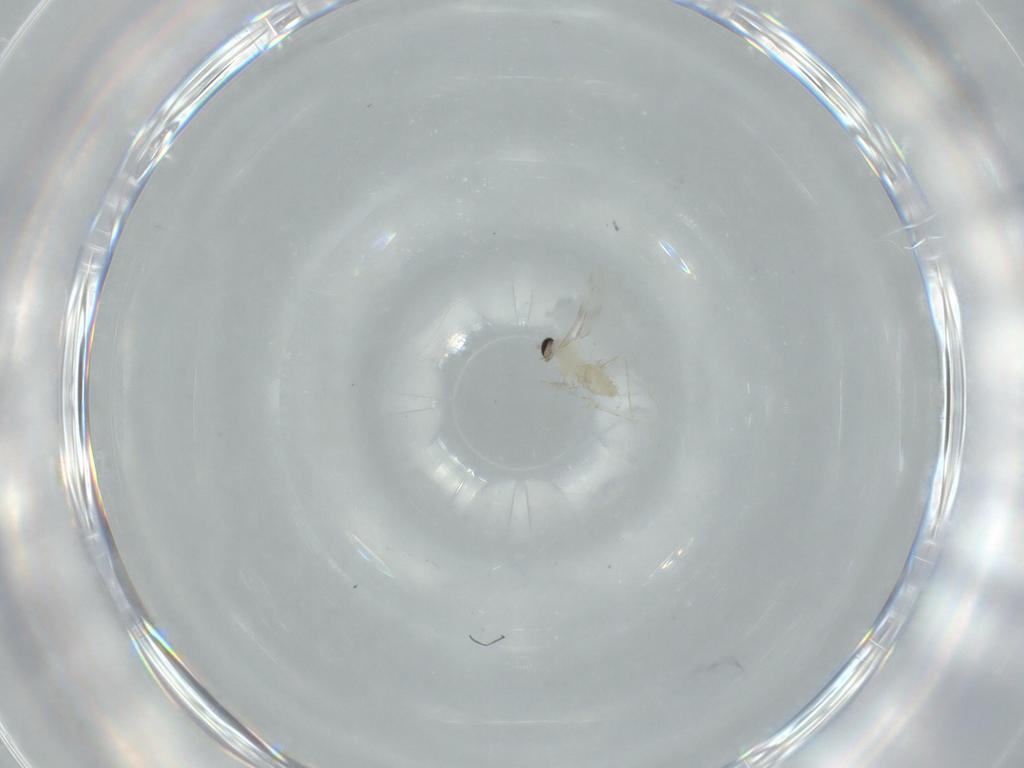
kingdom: Animalia
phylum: Arthropoda
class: Insecta
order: Diptera
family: Cecidomyiidae
